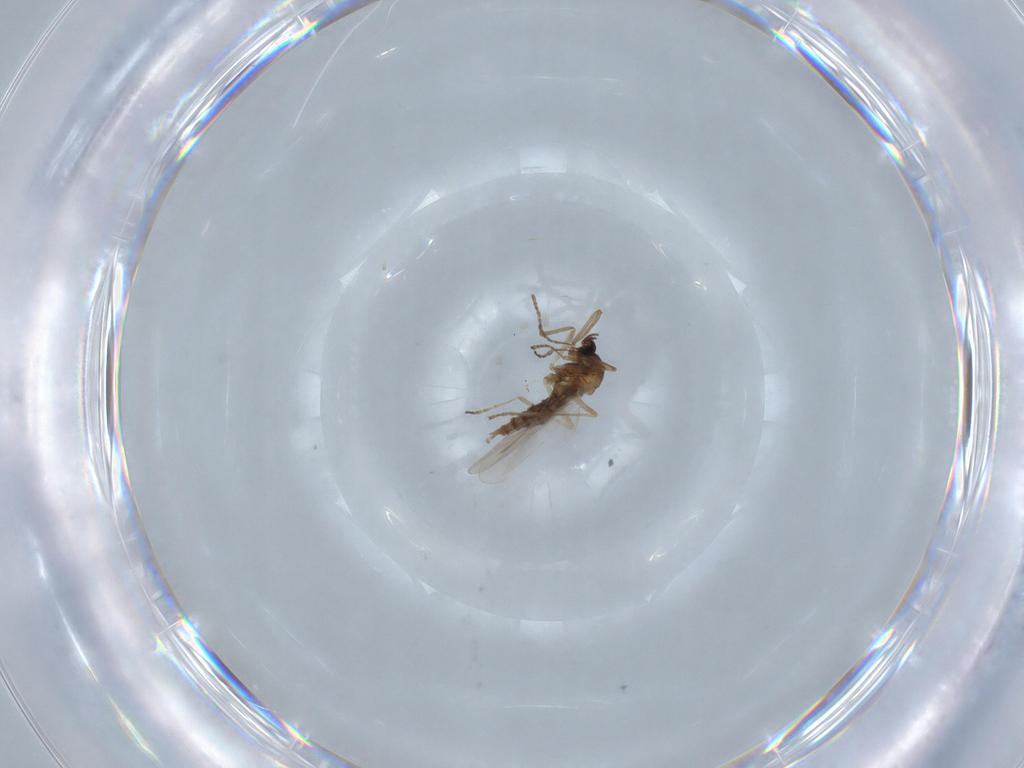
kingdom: Animalia
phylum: Arthropoda
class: Insecta
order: Diptera
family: Cecidomyiidae
